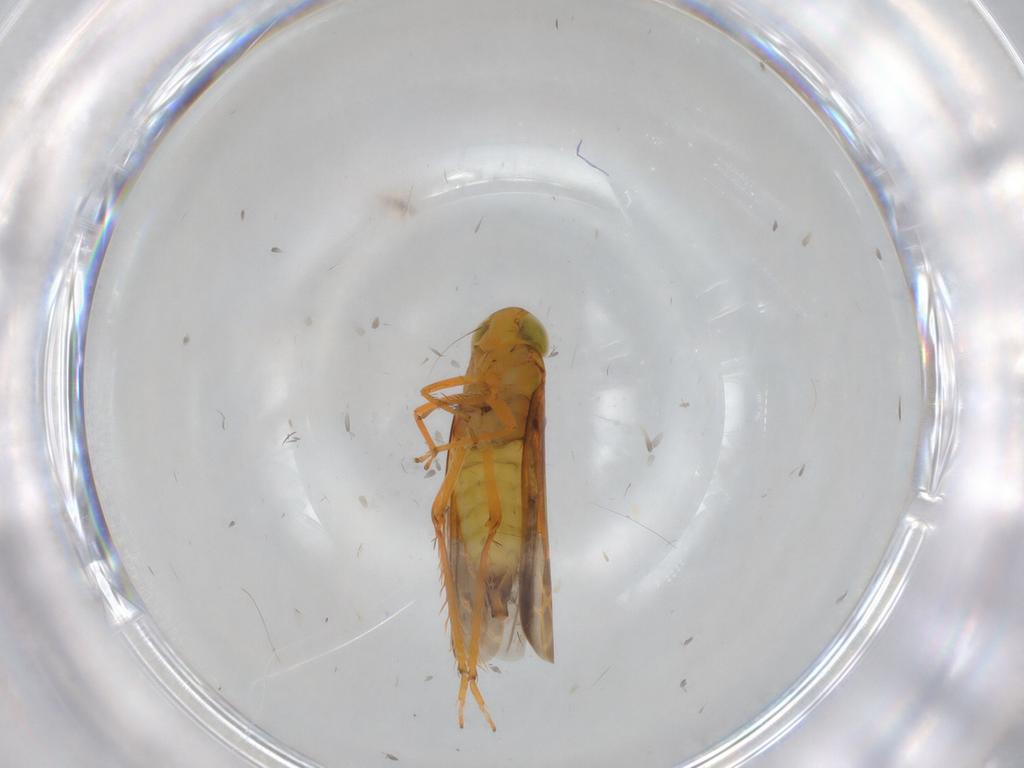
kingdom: Animalia
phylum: Arthropoda
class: Insecta
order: Hemiptera
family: Cicadellidae
